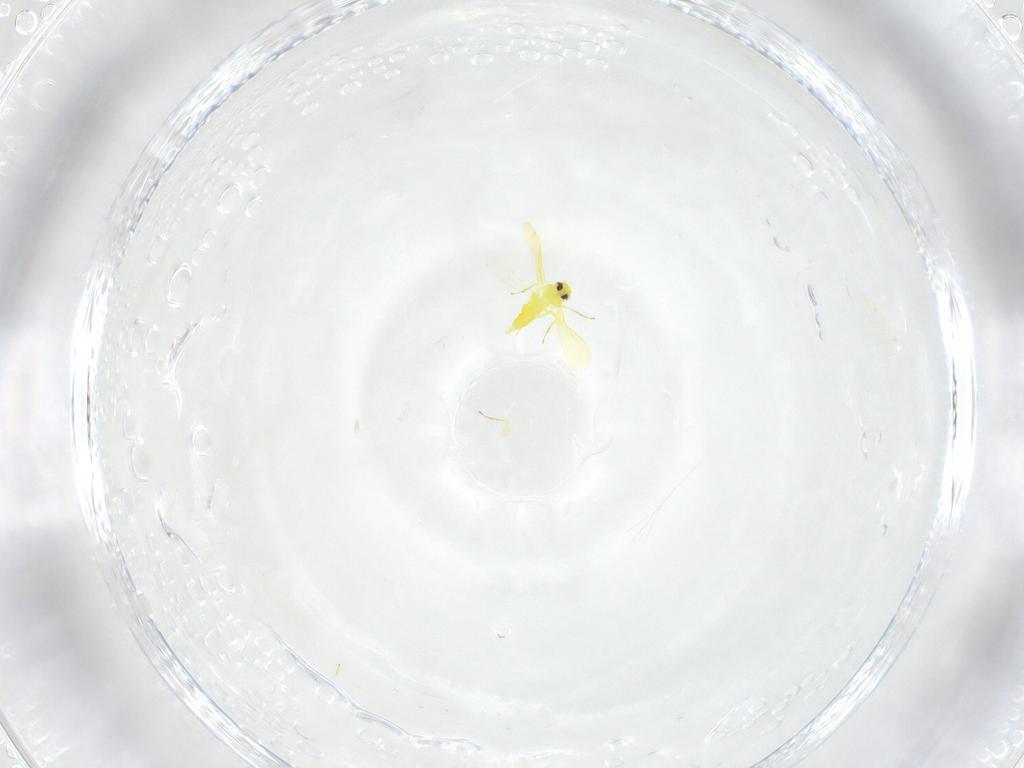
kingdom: Animalia
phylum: Arthropoda
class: Insecta
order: Hemiptera
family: Aleyrodidae
